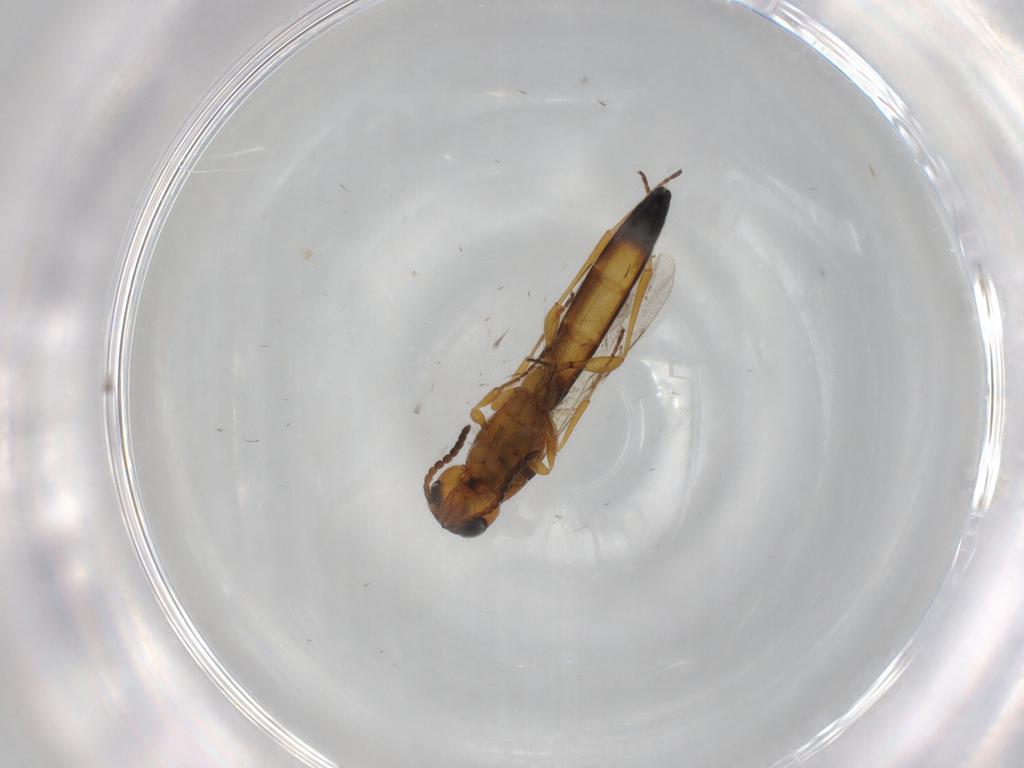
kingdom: Animalia
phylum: Arthropoda
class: Insecta
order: Hymenoptera
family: Scelionidae
